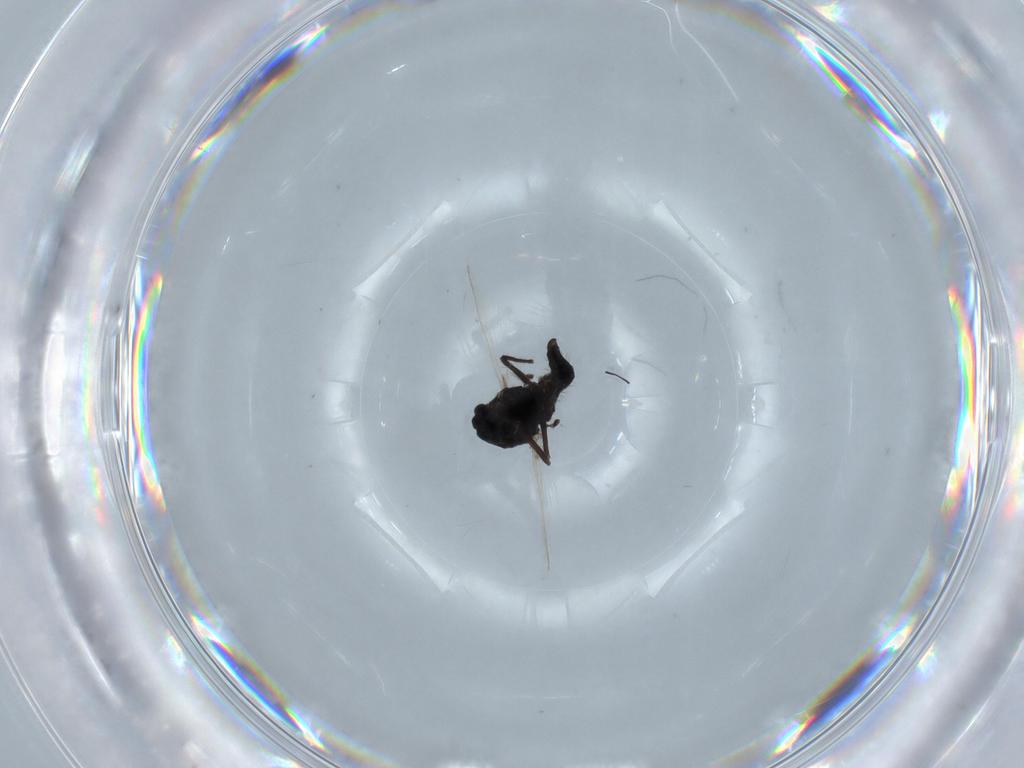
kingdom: Animalia
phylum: Arthropoda
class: Insecta
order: Diptera
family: Chironomidae
